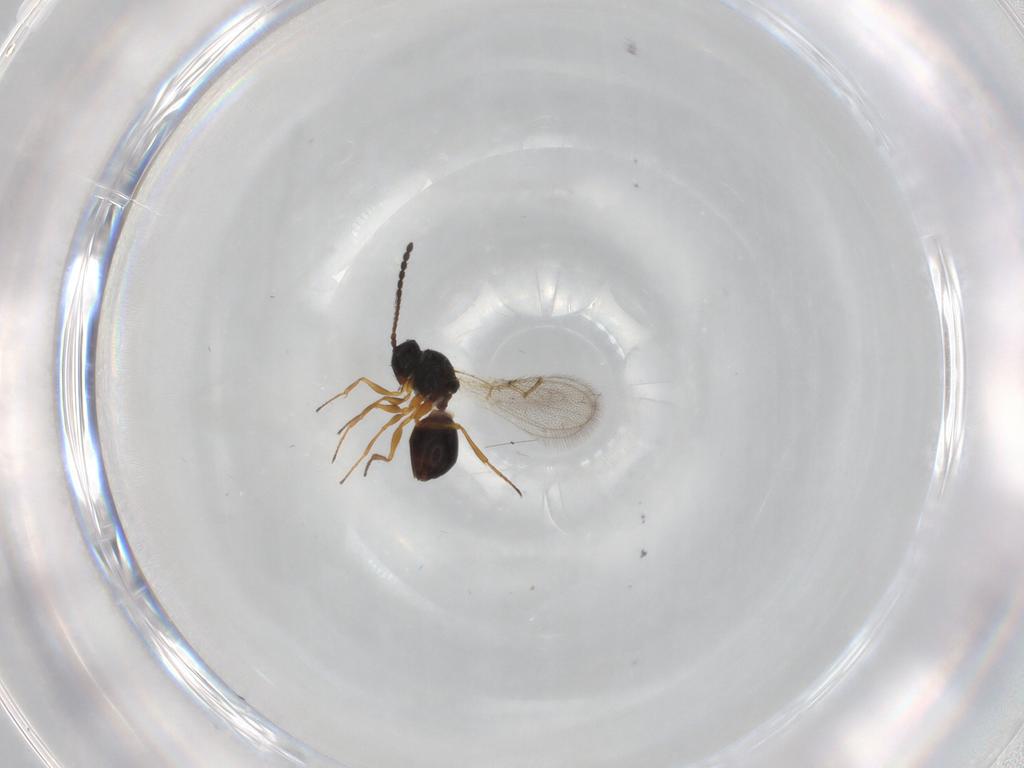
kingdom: Animalia
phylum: Arthropoda
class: Insecta
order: Hymenoptera
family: Figitidae
